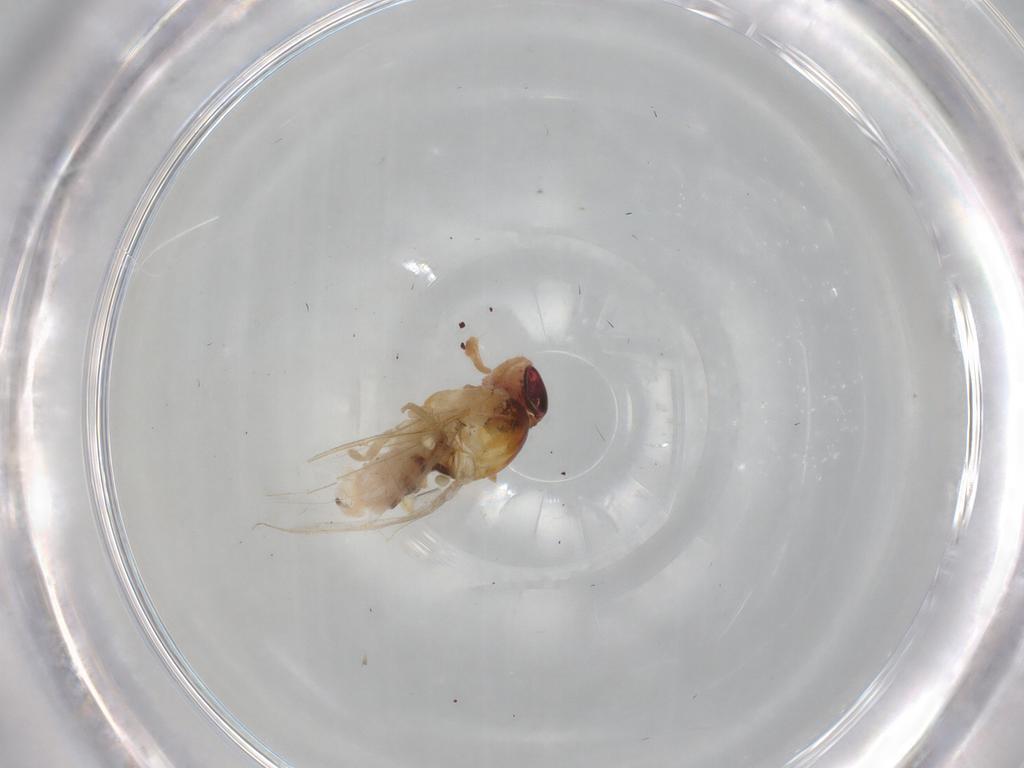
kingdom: Animalia
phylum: Arthropoda
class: Insecta
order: Diptera
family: Asteiidae
